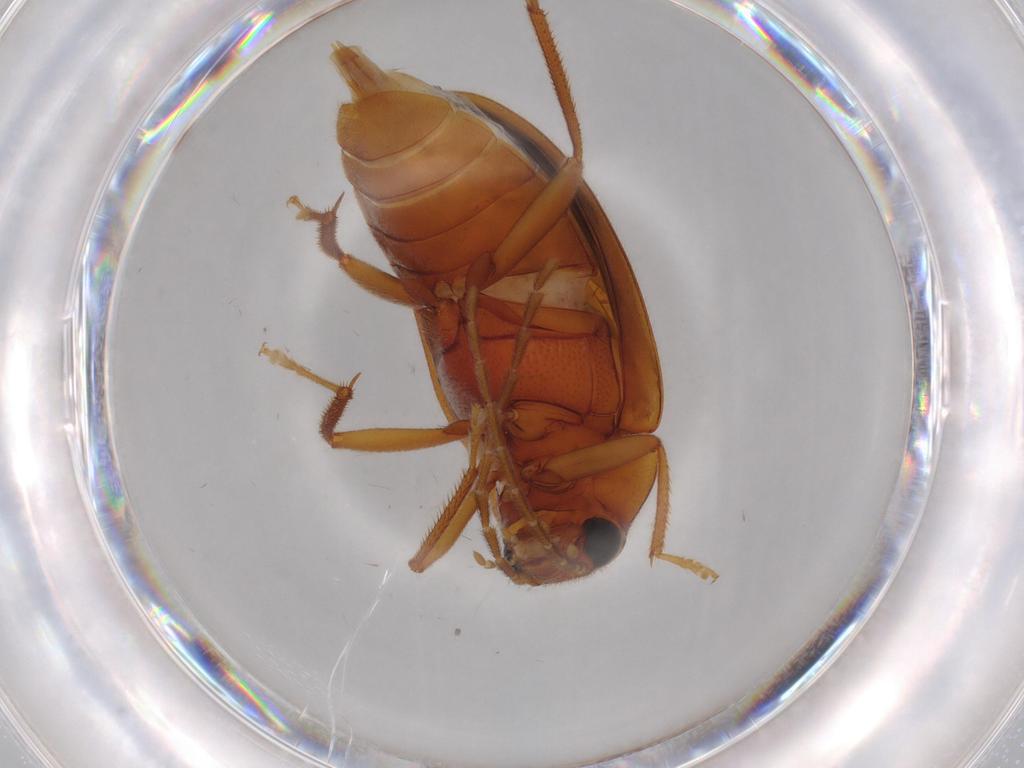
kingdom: Animalia
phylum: Arthropoda
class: Insecta
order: Coleoptera
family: Ptilodactylidae
